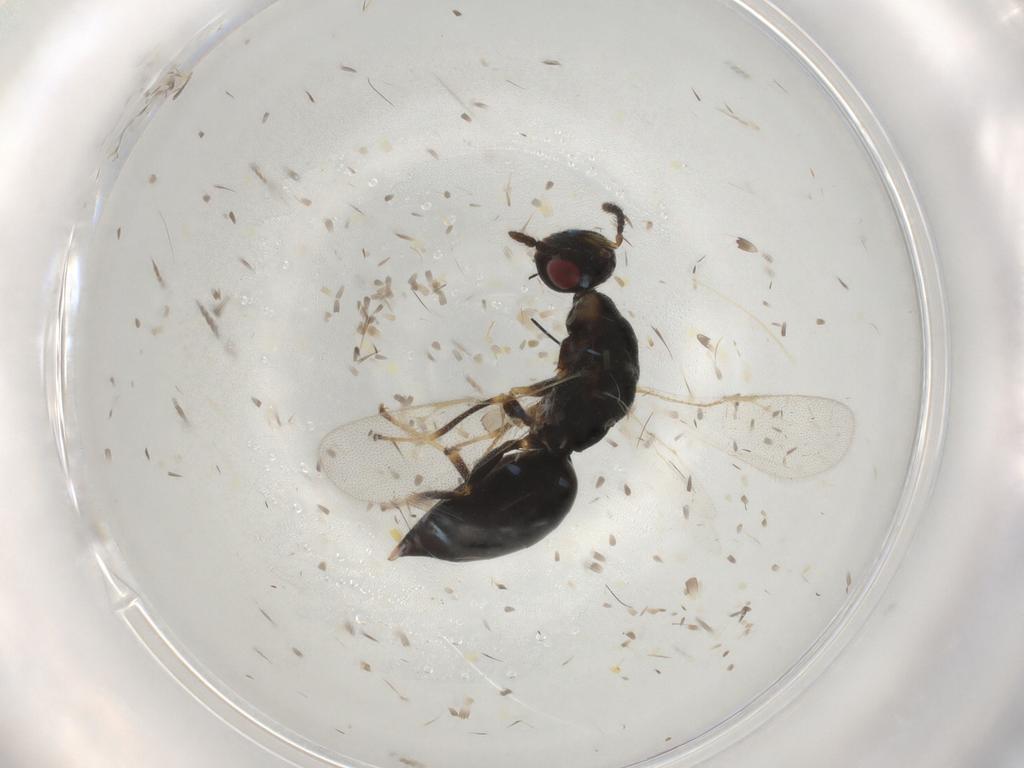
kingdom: Animalia
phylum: Arthropoda
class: Insecta
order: Hymenoptera
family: Eurytomidae
